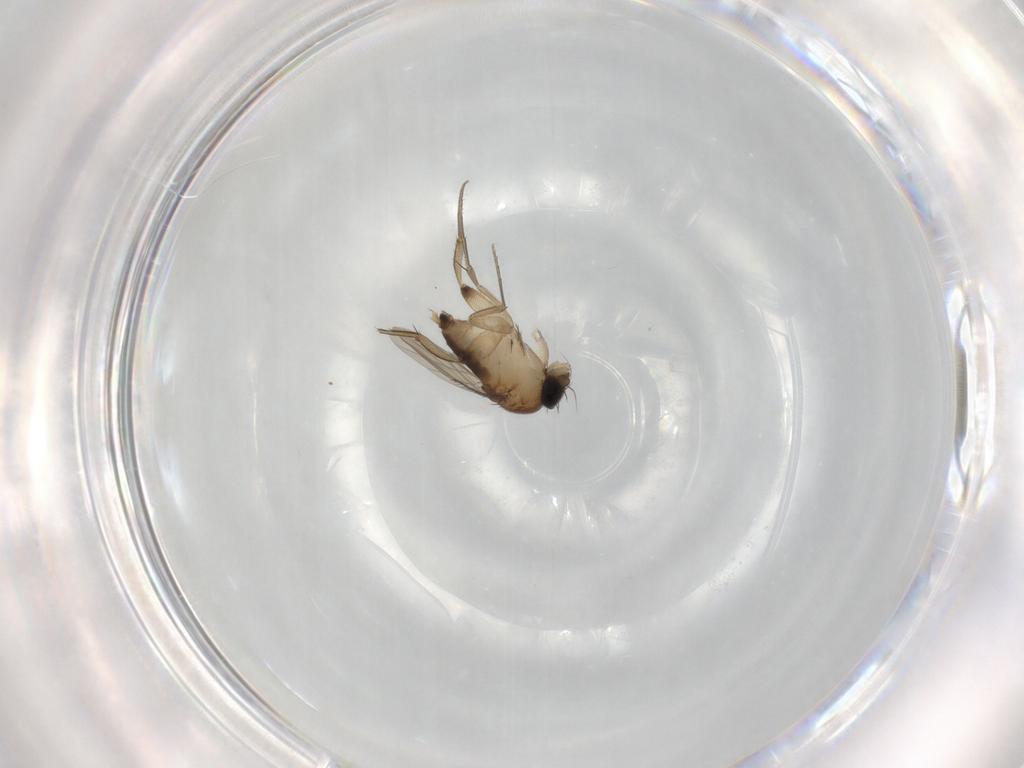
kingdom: Animalia
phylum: Arthropoda
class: Insecta
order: Diptera
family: Phoridae
